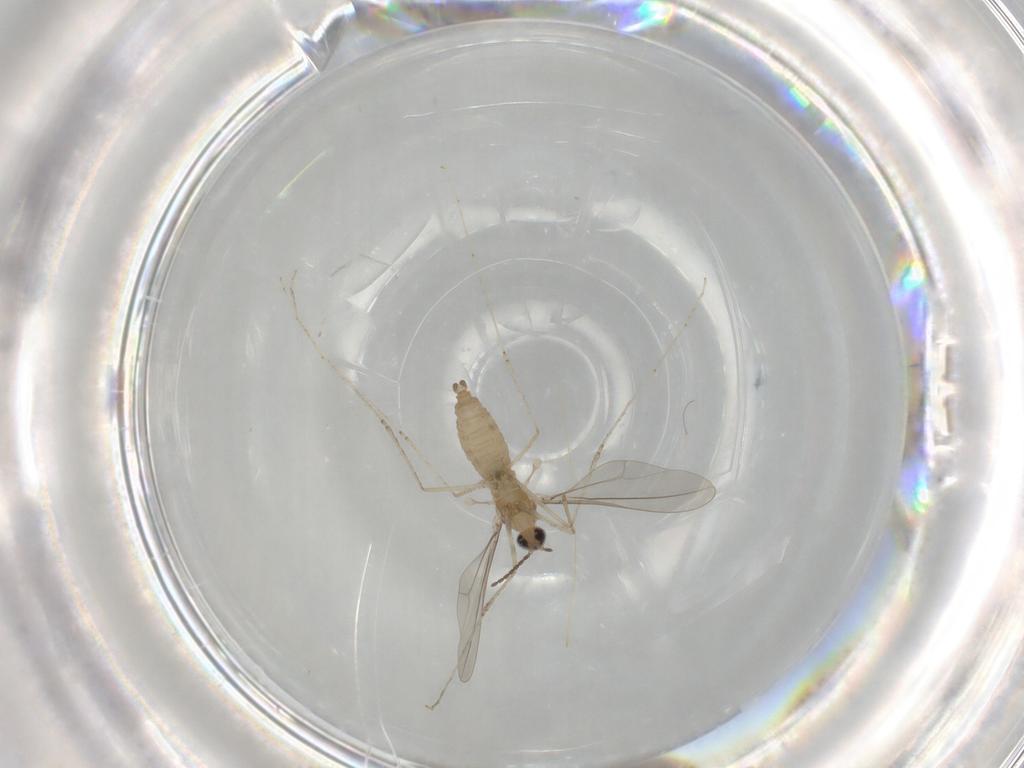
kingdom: Animalia
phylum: Arthropoda
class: Insecta
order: Diptera
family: Cecidomyiidae
